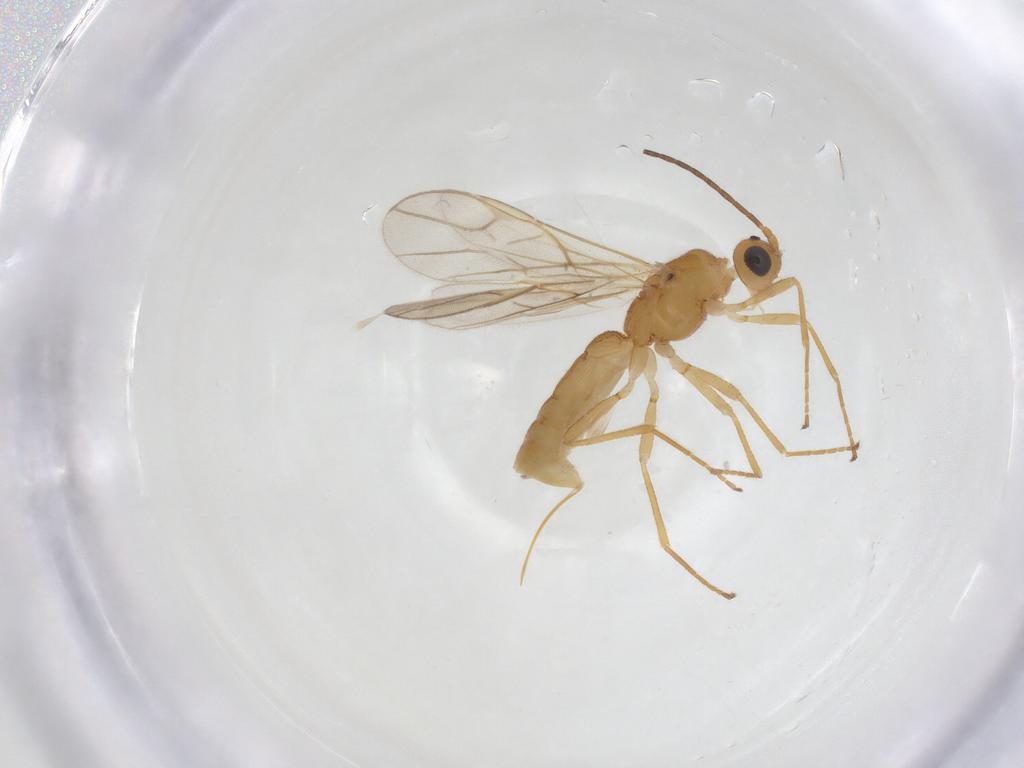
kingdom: Animalia
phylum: Arthropoda
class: Insecta
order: Hymenoptera
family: Braconidae
